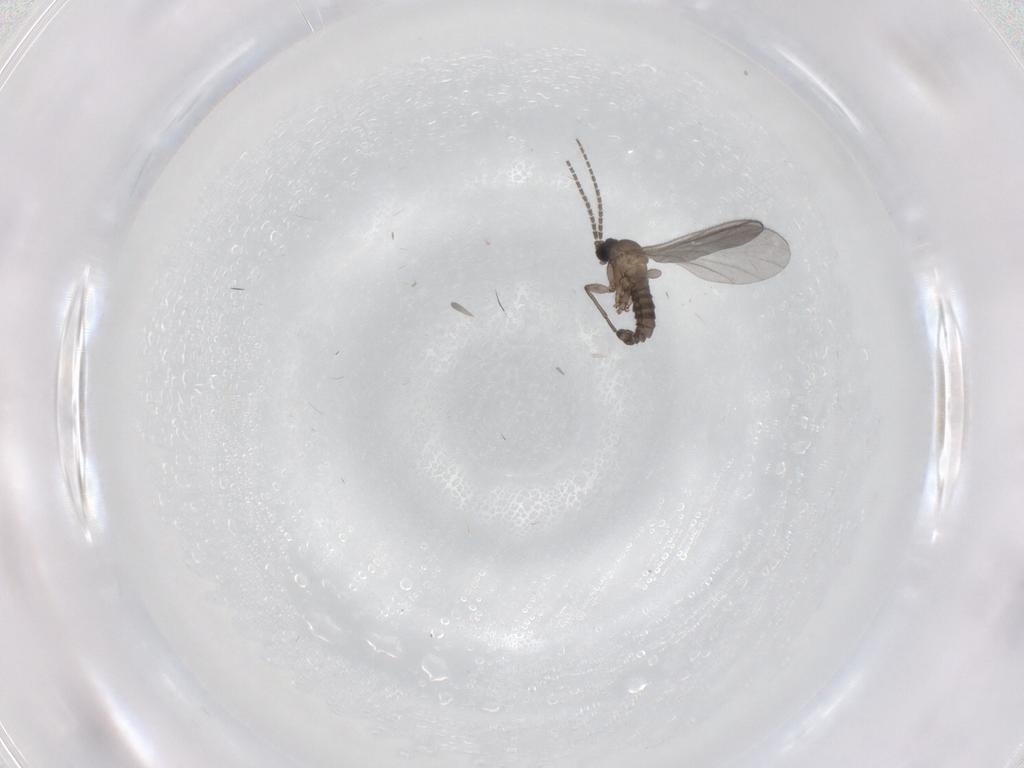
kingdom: Animalia
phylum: Arthropoda
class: Insecta
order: Diptera
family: Sciaridae
